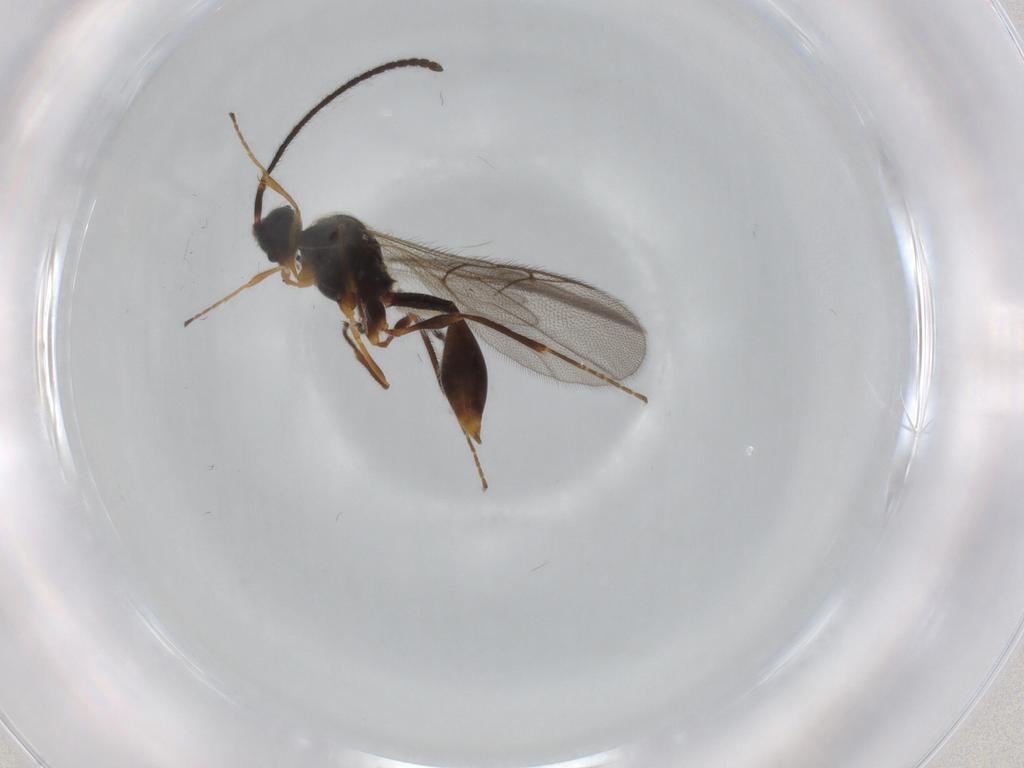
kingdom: Animalia
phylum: Arthropoda
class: Insecta
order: Hymenoptera
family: Diapriidae
